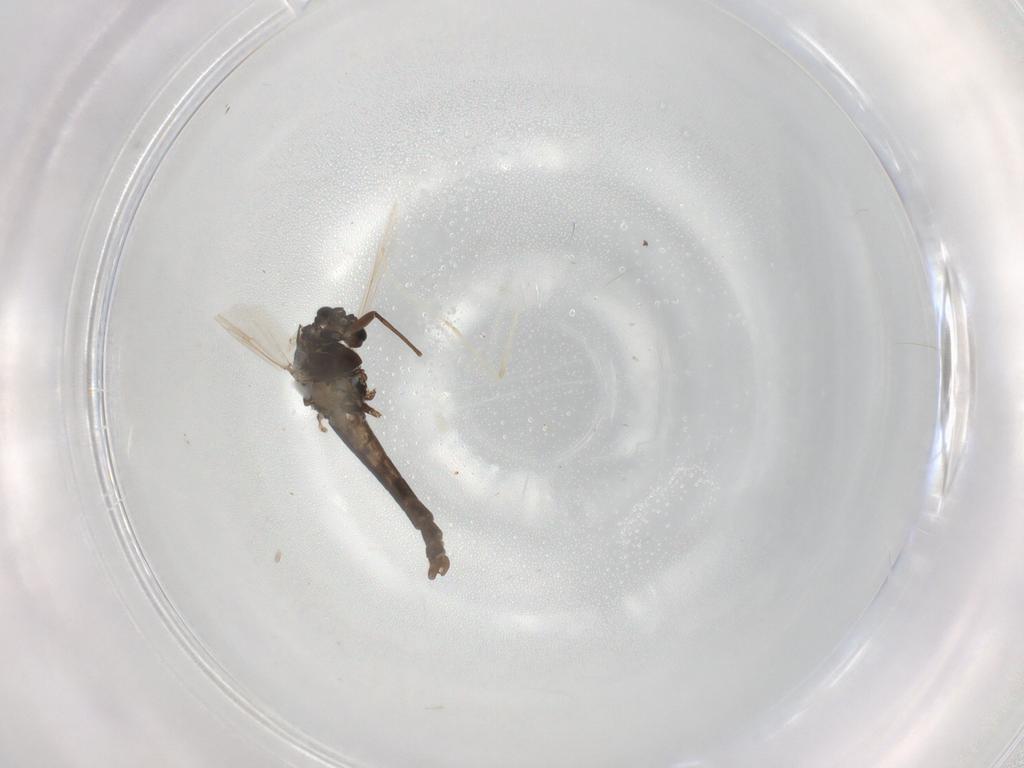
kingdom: Animalia
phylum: Arthropoda
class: Insecta
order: Diptera
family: Chironomidae
